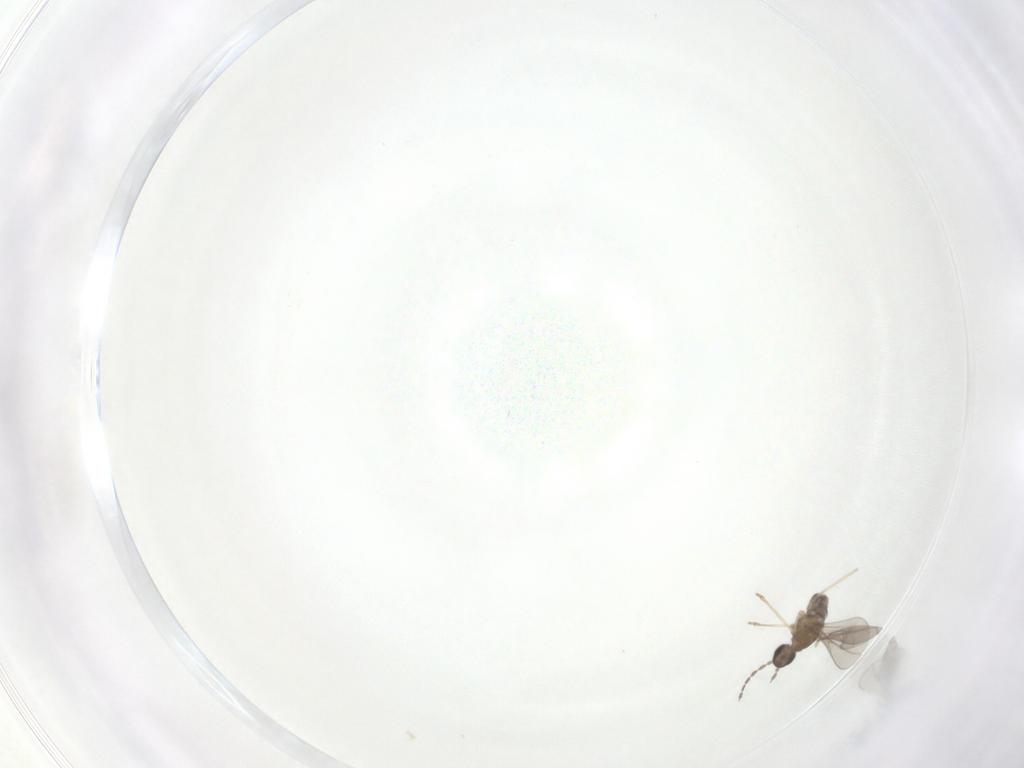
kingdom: Animalia
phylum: Arthropoda
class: Insecta
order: Diptera
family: Cecidomyiidae
